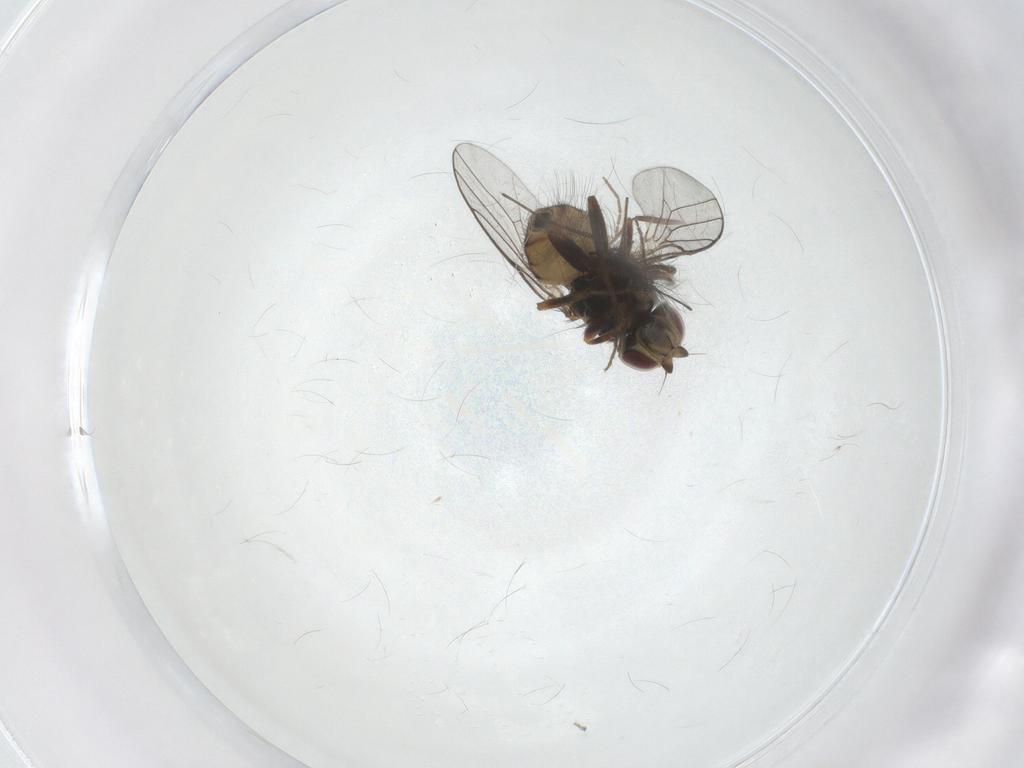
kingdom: Animalia
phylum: Arthropoda
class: Insecta
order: Diptera
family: Chloropidae
